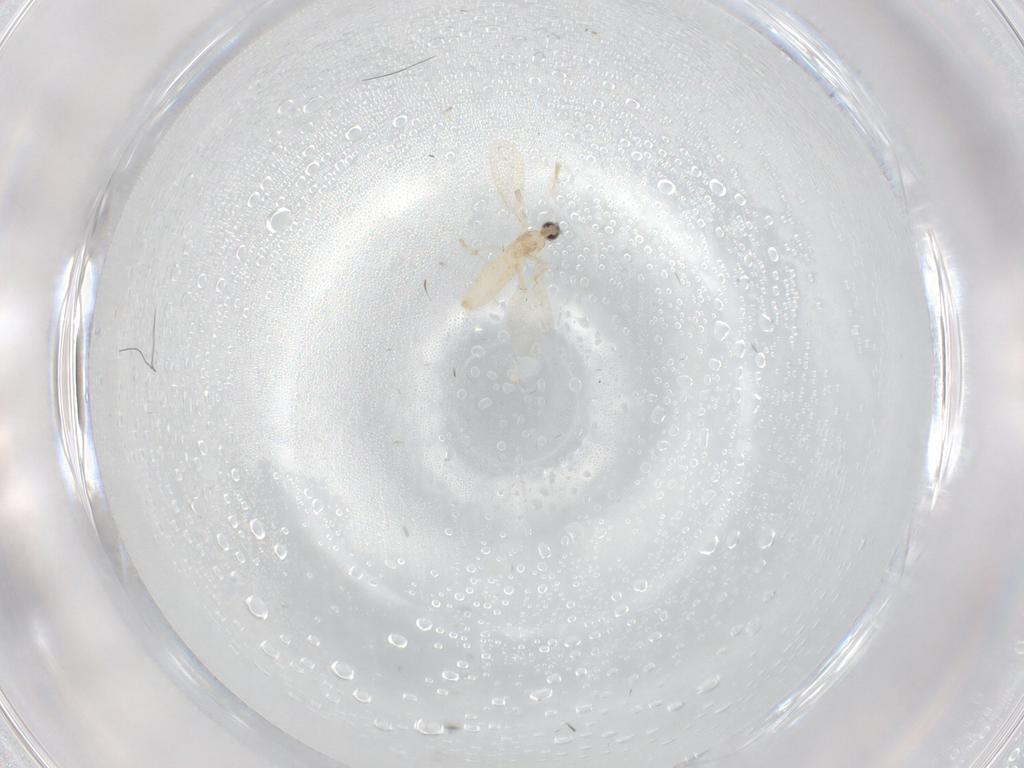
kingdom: Animalia
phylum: Arthropoda
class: Insecta
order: Diptera
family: Cecidomyiidae
